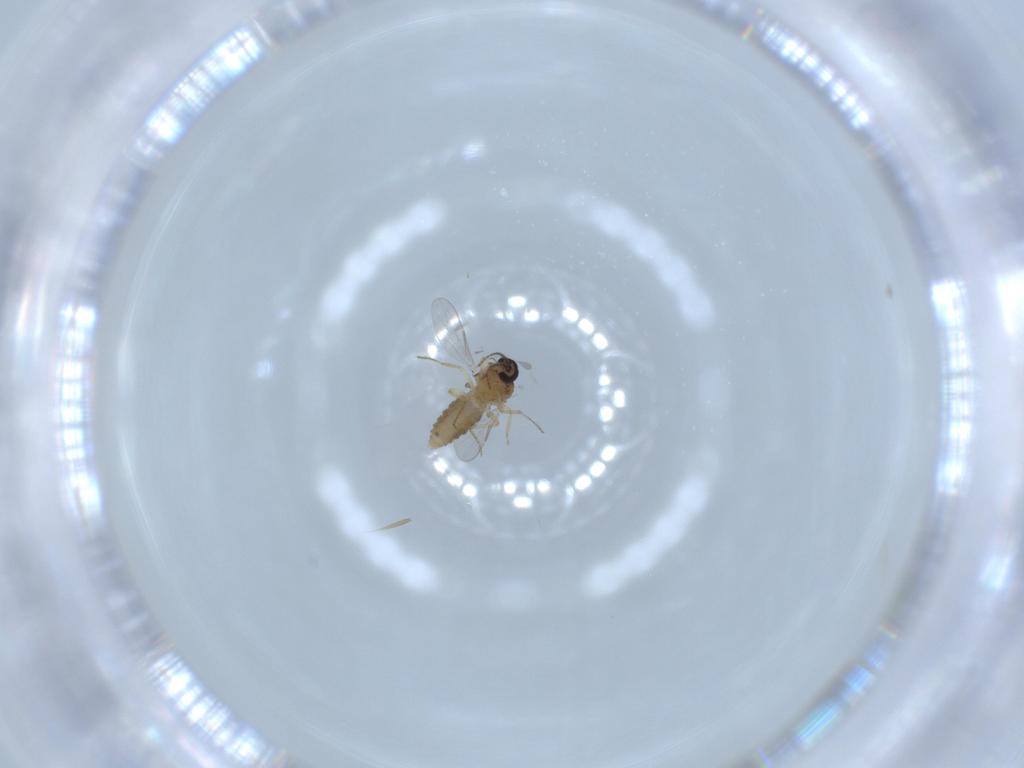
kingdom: Animalia
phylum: Arthropoda
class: Insecta
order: Diptera
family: Ceratopogonidae
